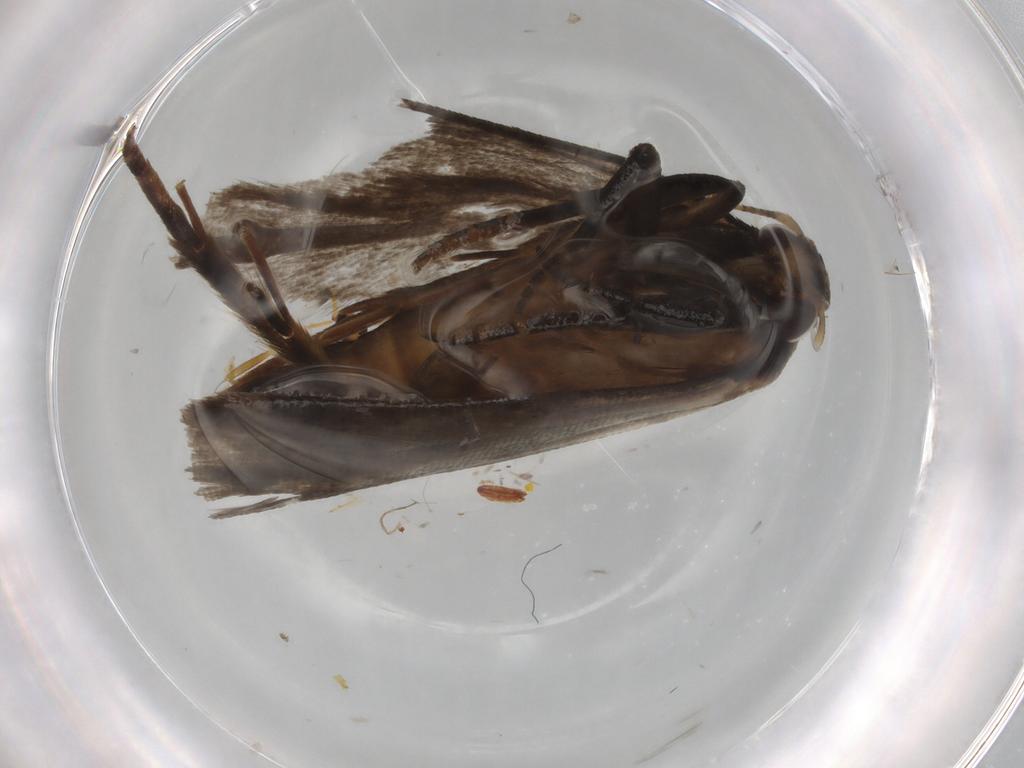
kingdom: Animalia
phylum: Arthropoda
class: Insecta
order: Lepidoptera
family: Gelechiidae
